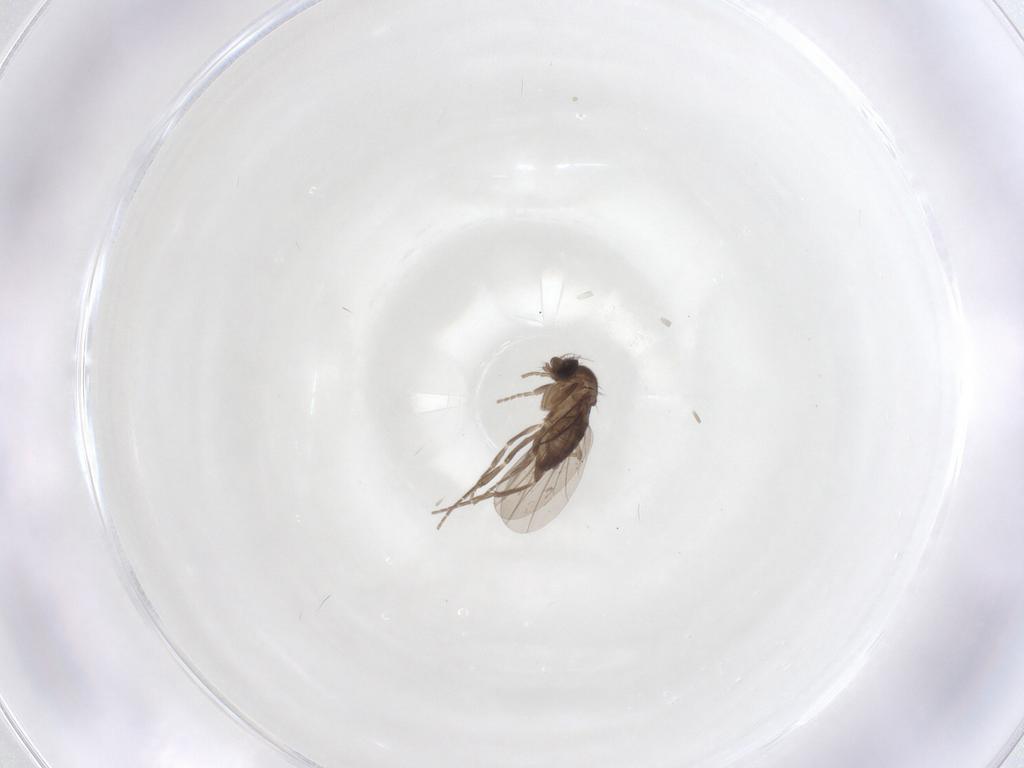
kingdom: Animalia
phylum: Arthropoda
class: Insecta
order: Diptera
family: Phoridae
